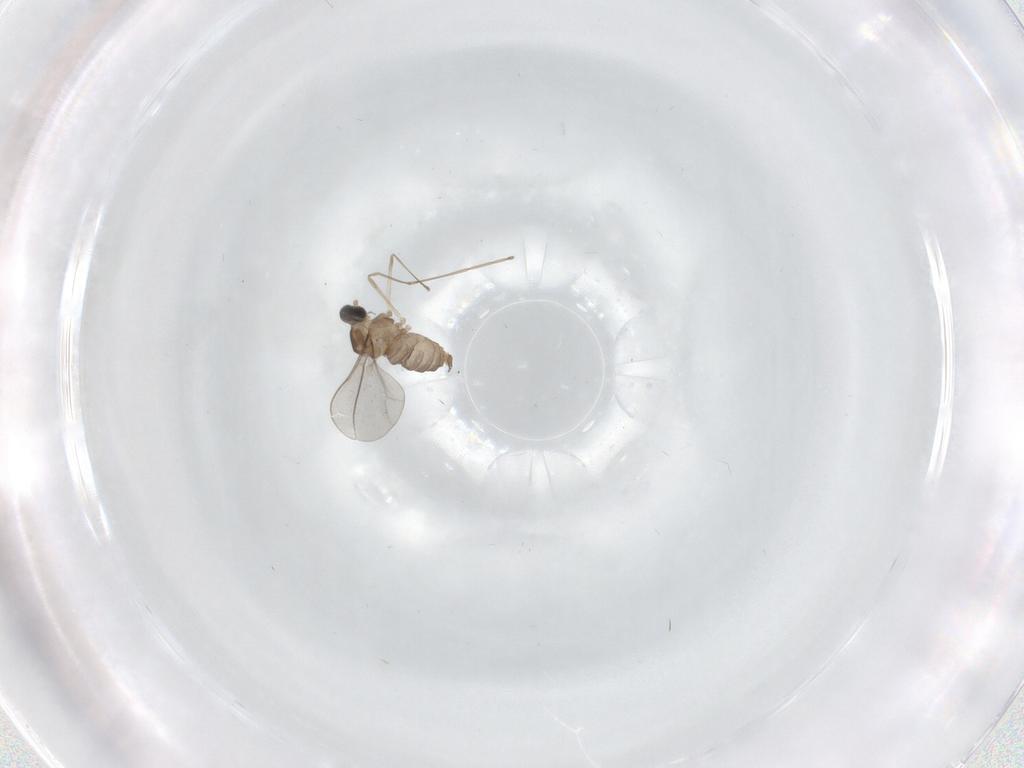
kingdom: Animalia
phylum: Arthropoda
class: Insecta
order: Diptera
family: Cecidomyiidae
